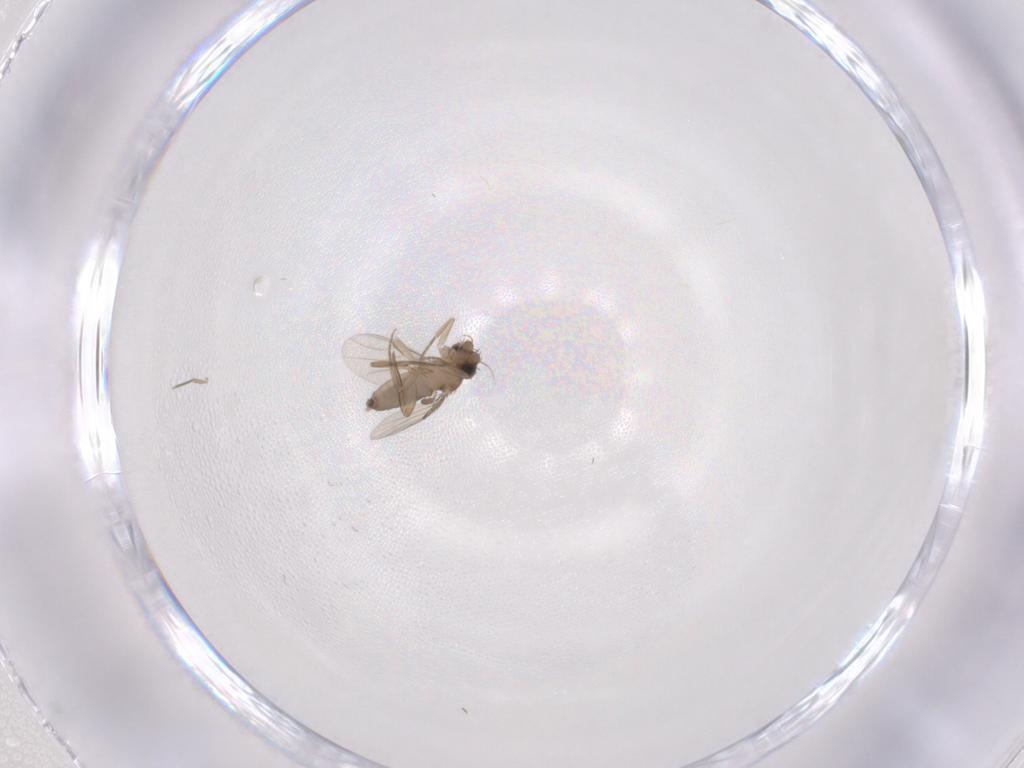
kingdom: Animalia
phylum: Arthropoda
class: Insecta
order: Diptera
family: Phoridae
